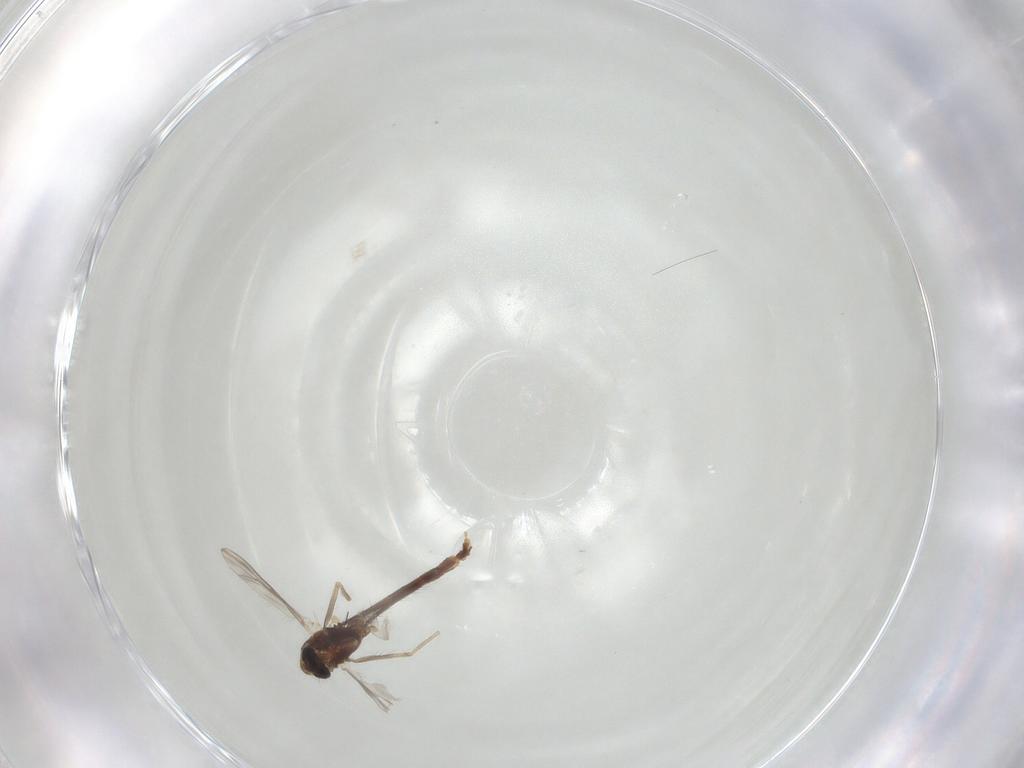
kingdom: Animalia
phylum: Arthropoda
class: Insecta
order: Diptera
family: Chironomidae
